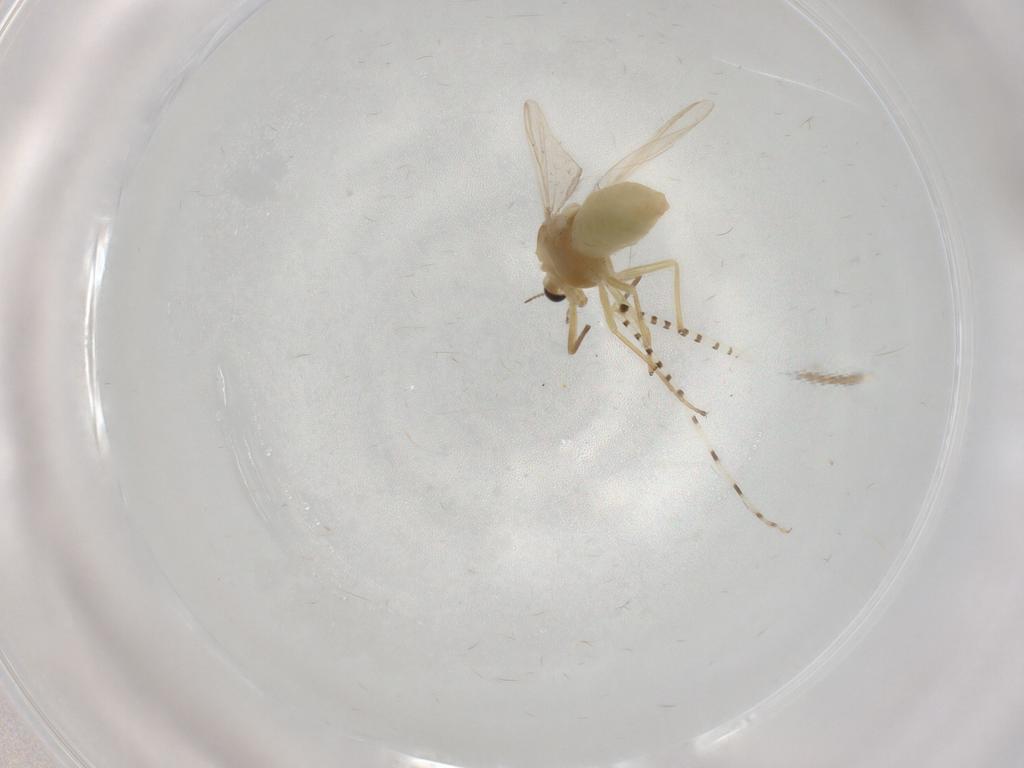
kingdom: Animalia
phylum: Arthropoda
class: Insecta
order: Diptera
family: Chironomidae
